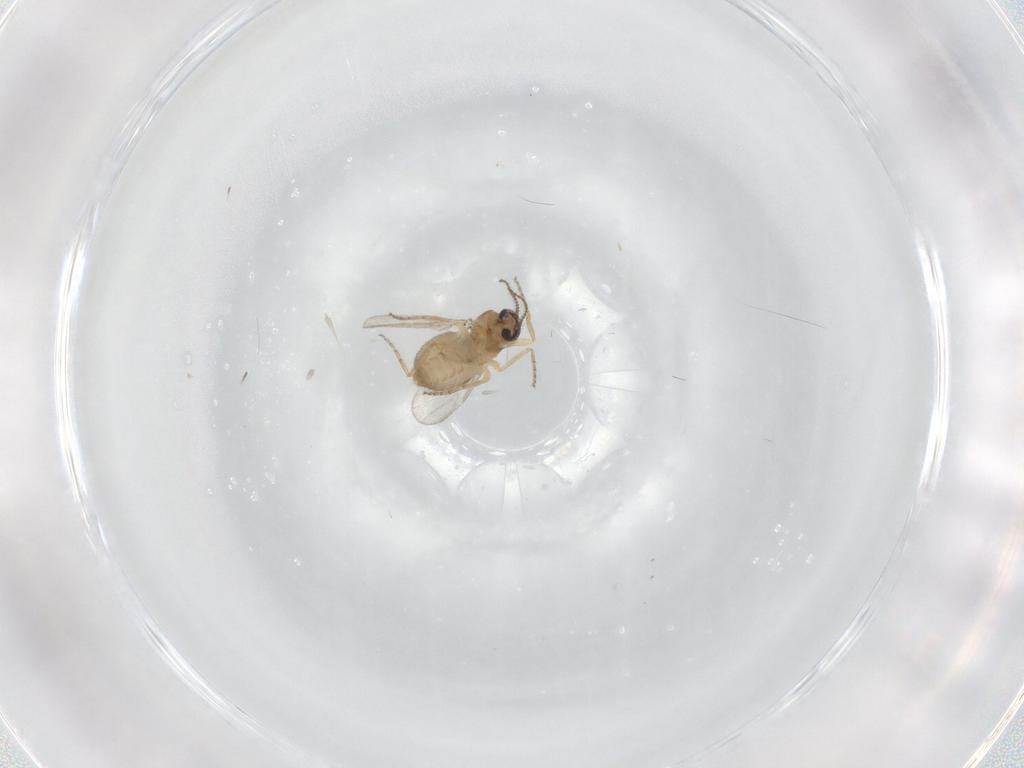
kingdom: Animalia
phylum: Arthropoda
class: Insecta
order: Diptera
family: Ceratopogonidae
